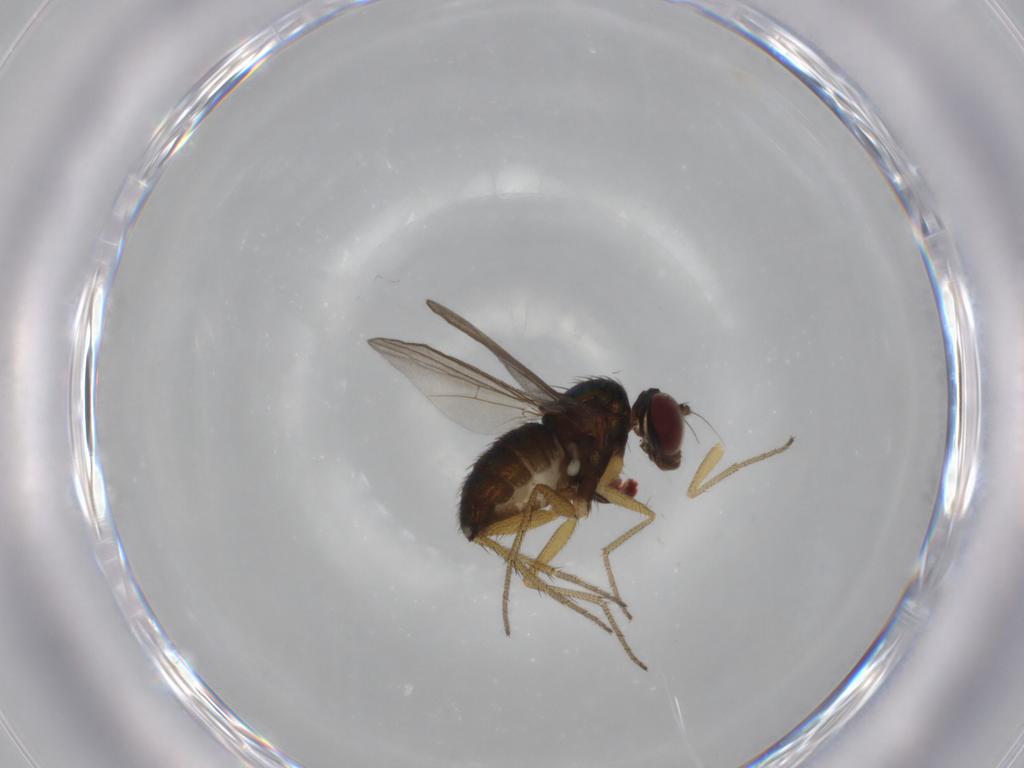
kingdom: Animalia
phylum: Arthropoda
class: Insecta
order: Diptera
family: Dolichopodidae
